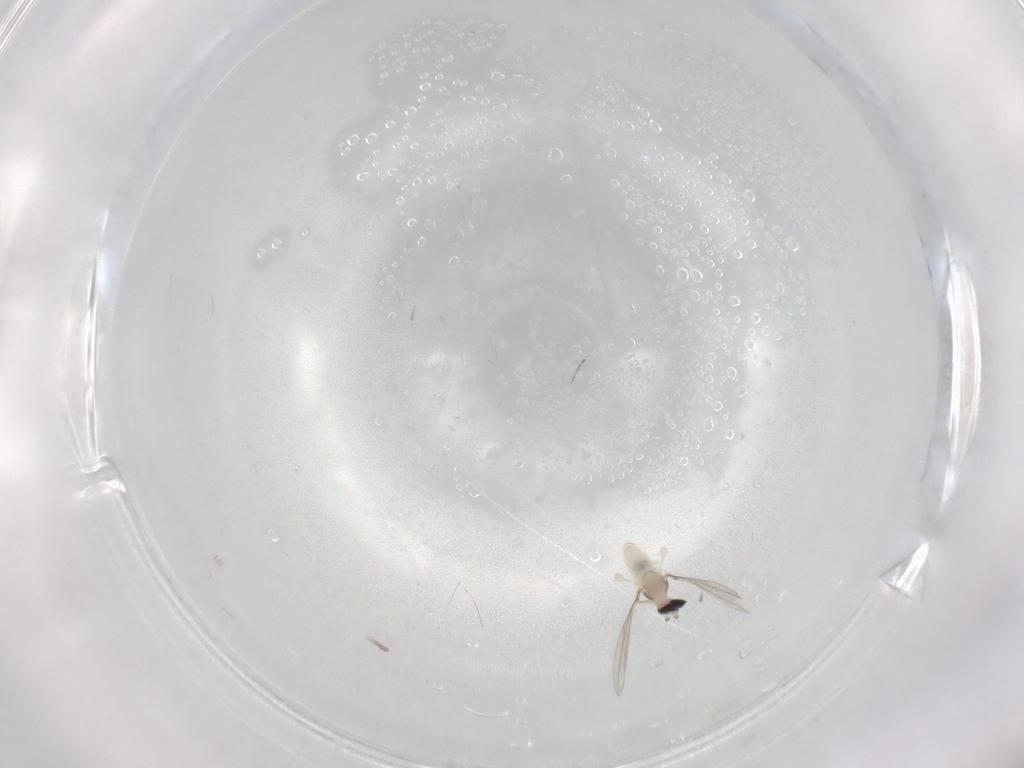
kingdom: Animalia
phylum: Arthropoda
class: Insecta
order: Diptera
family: Cecidomyiidae
